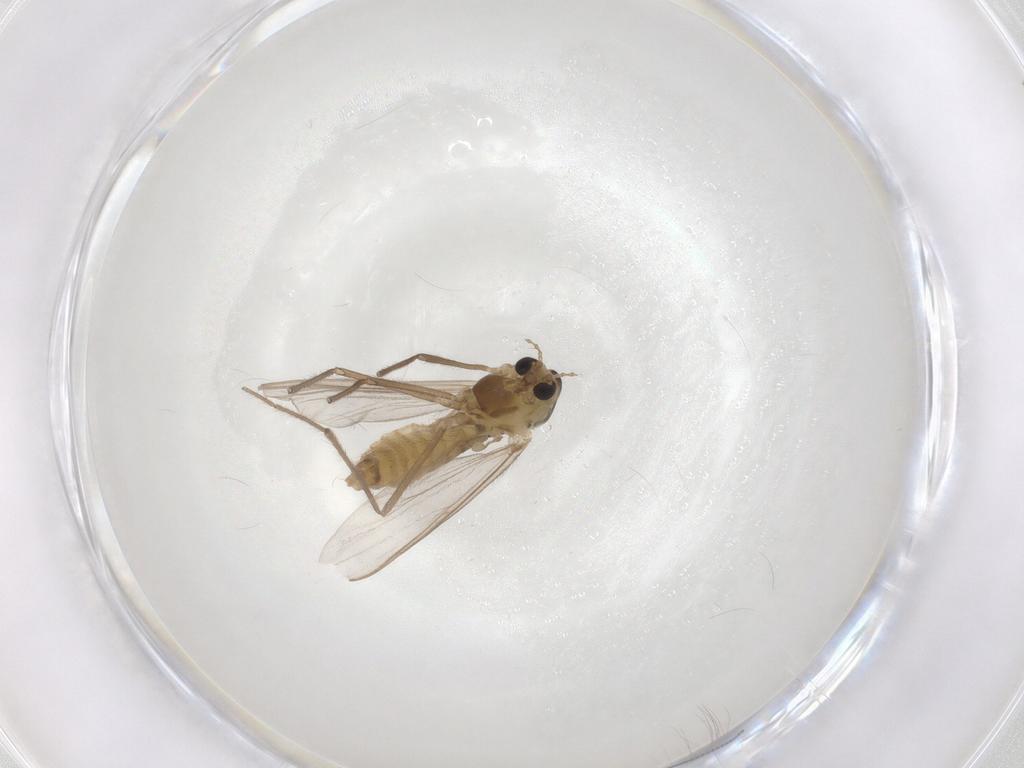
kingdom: Animalia
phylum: Arthropoda
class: Insecta
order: Diptera
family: Chironomidae
